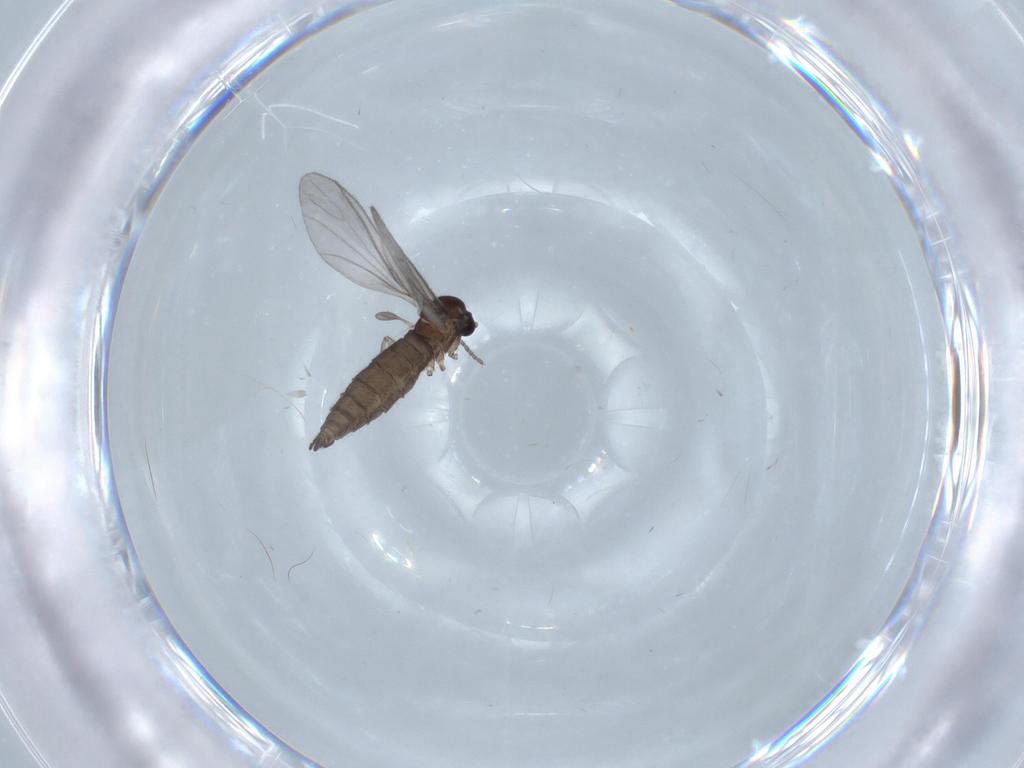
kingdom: Animalia
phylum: Arthropoda
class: Insecta
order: Diptera
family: Sciaridae
